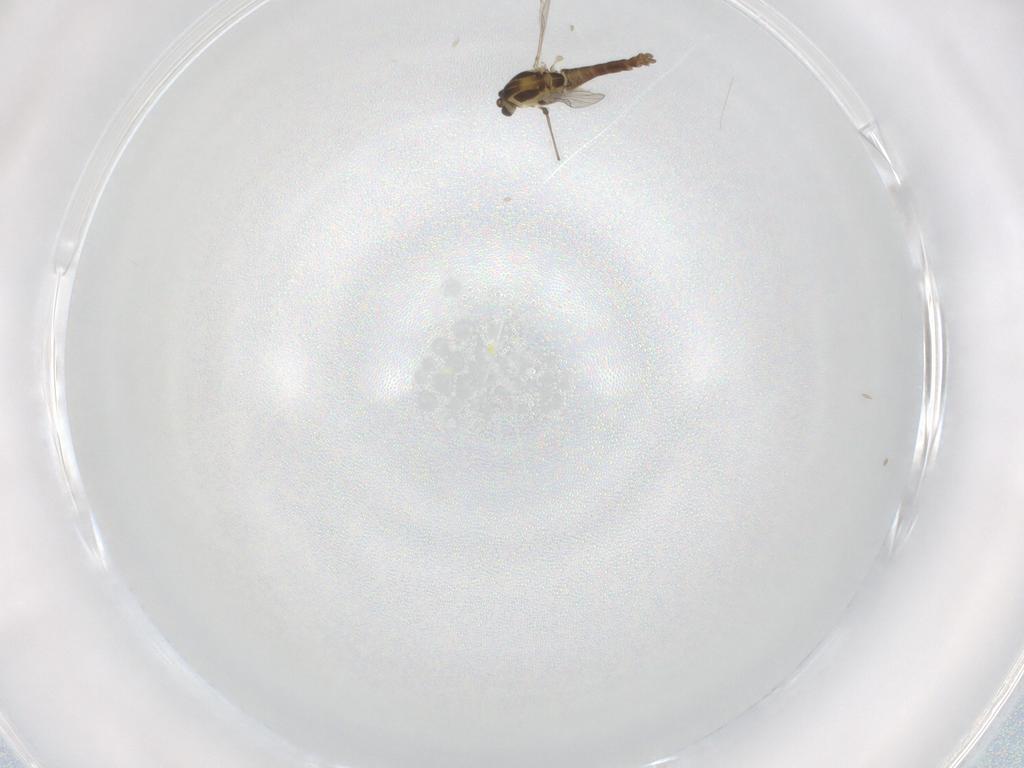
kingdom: Animalia
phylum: Arthropoda
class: Insecta
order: Diptera
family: Chironomidae
